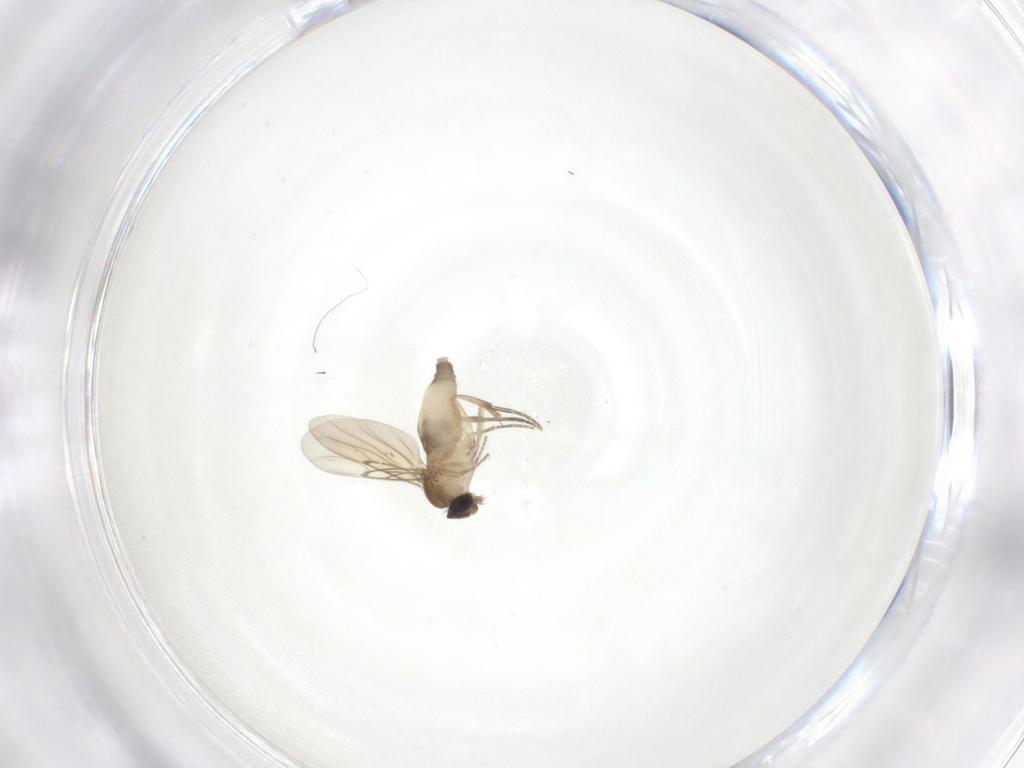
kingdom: Animalia
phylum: Arthropoda
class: Insecta
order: Diptera
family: Phoridae
